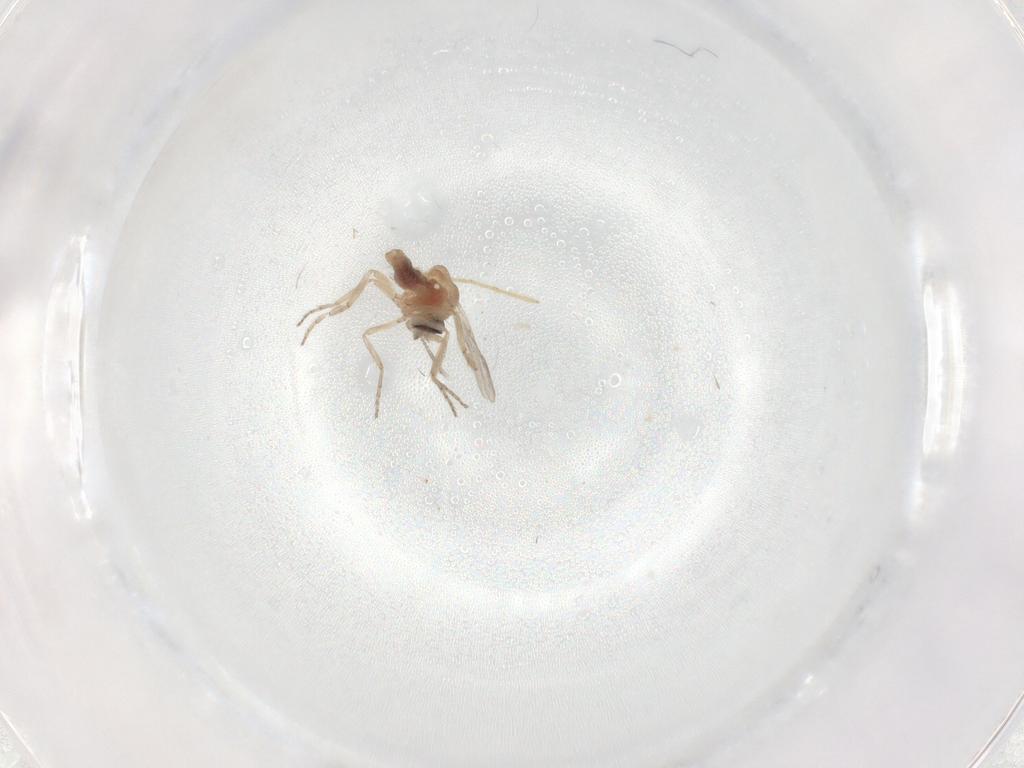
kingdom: Animalia
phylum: Arthropoda
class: Insecta
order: Diptera
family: Ceratopogonidae
